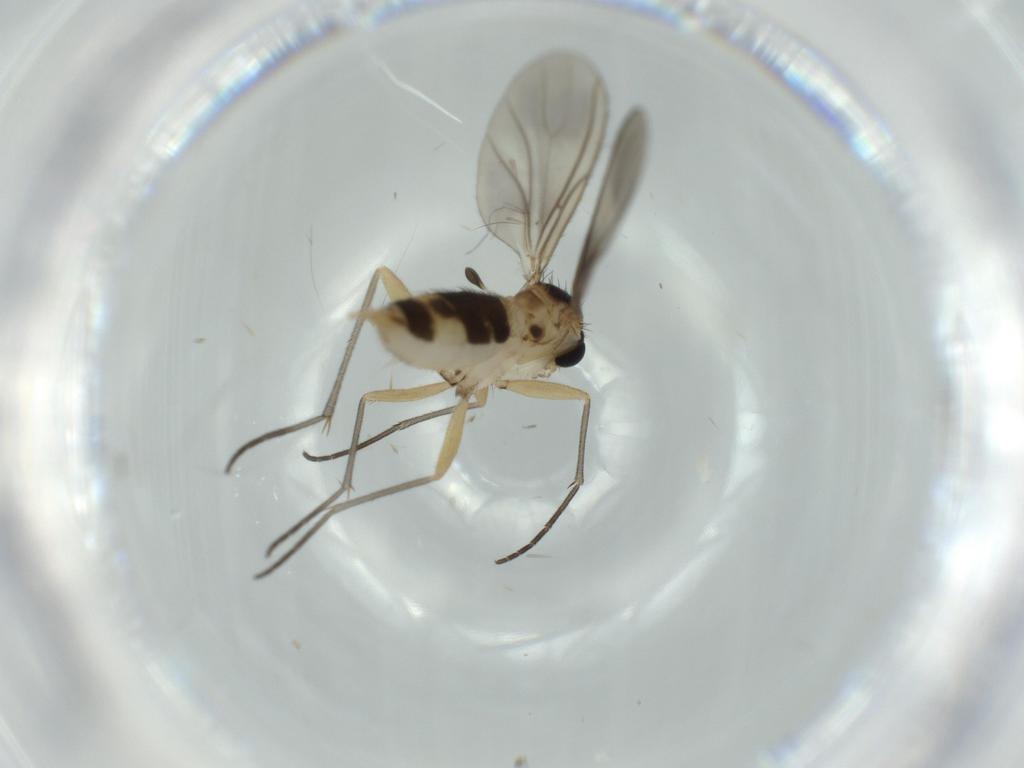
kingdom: Animalia
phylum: Arthropoda
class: Insecta
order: Diptera
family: Sciaridae
